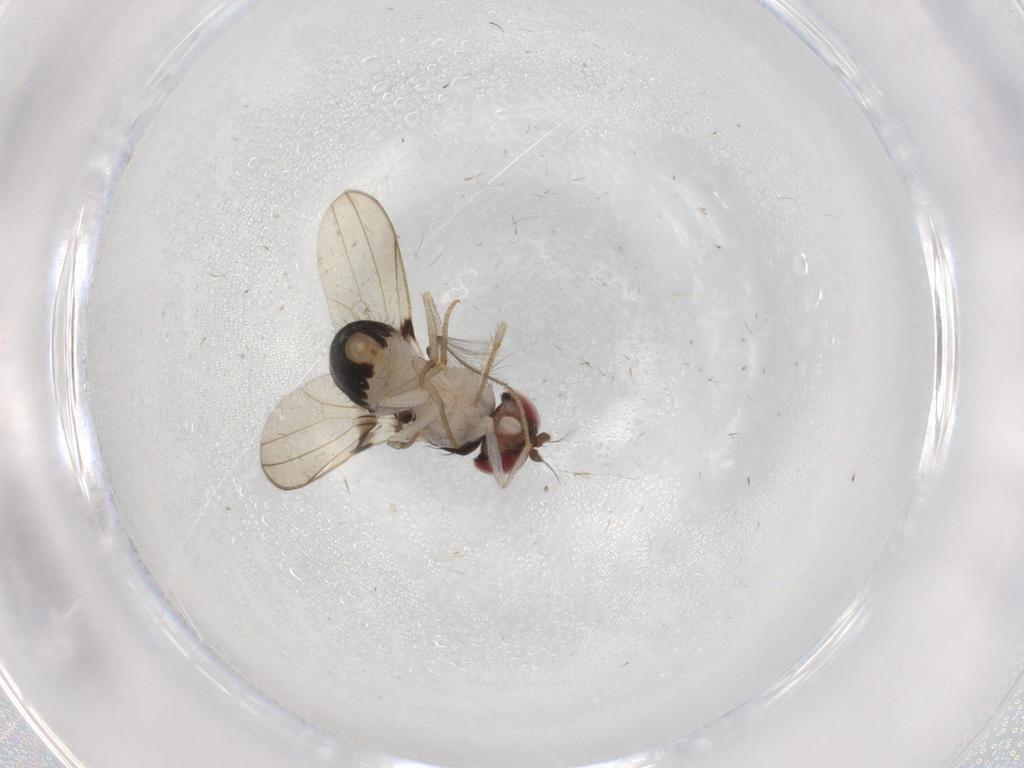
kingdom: Animalia
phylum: Arthropoda
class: Insecta
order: Diptera
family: Drosophilidae
